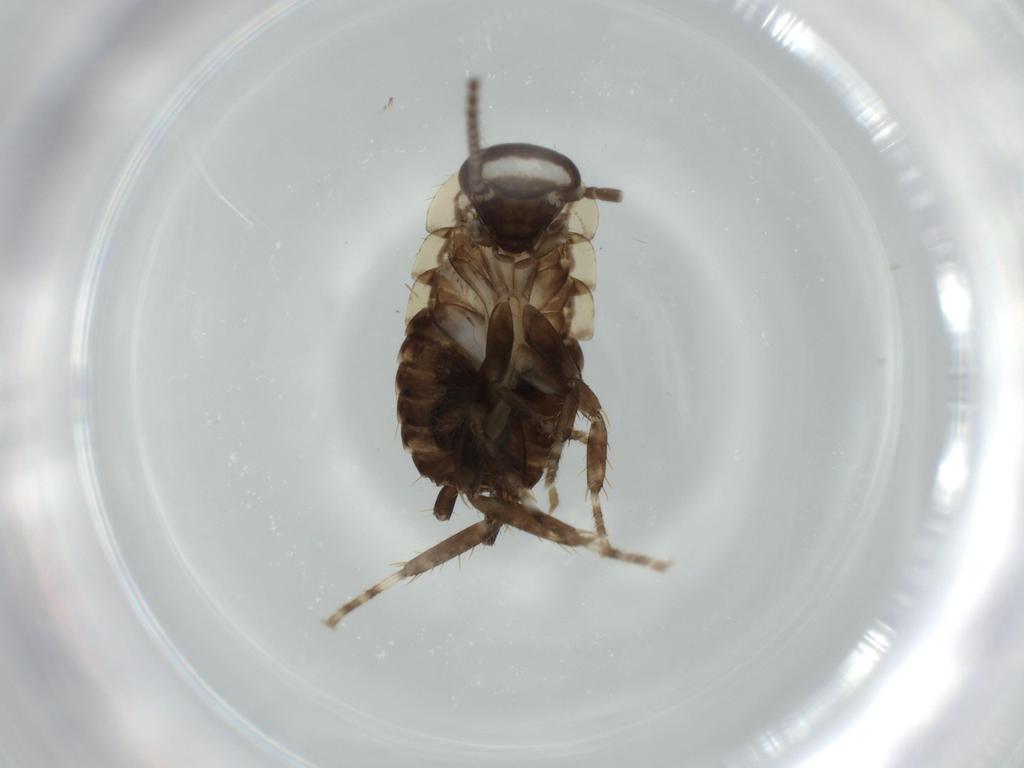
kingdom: Animalia
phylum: Arthropoda
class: Insecta
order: Blattodea
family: Ectobiidae
